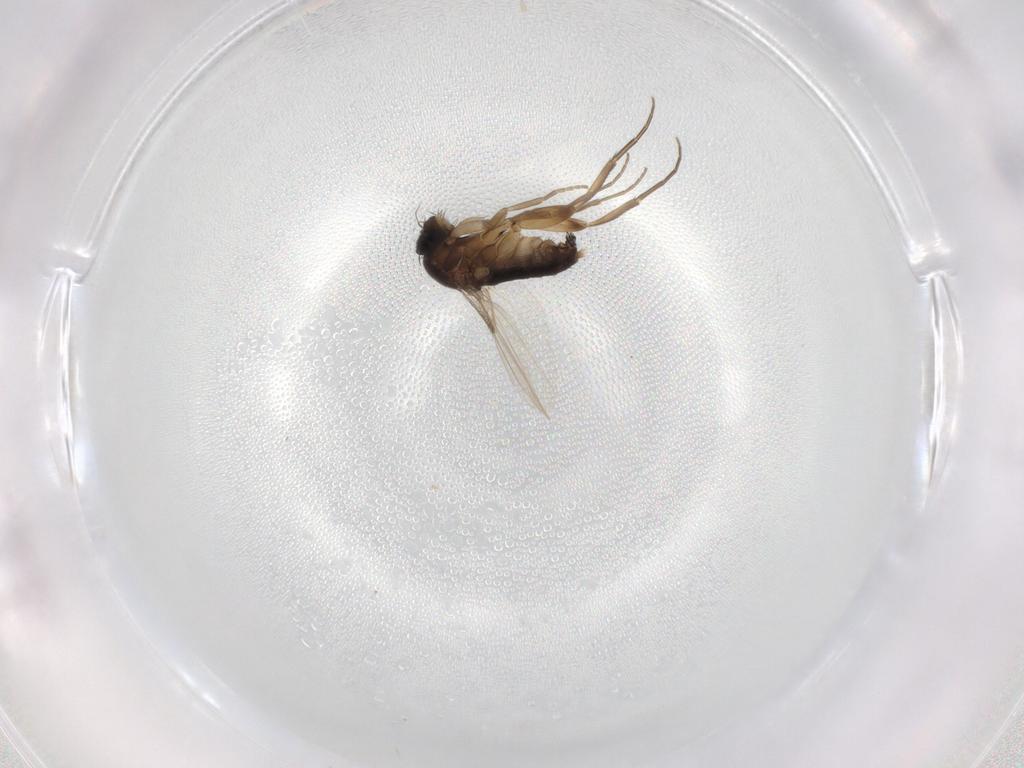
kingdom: Animalia
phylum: Arthropoda
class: Insecta
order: Diptera
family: Phoridae
